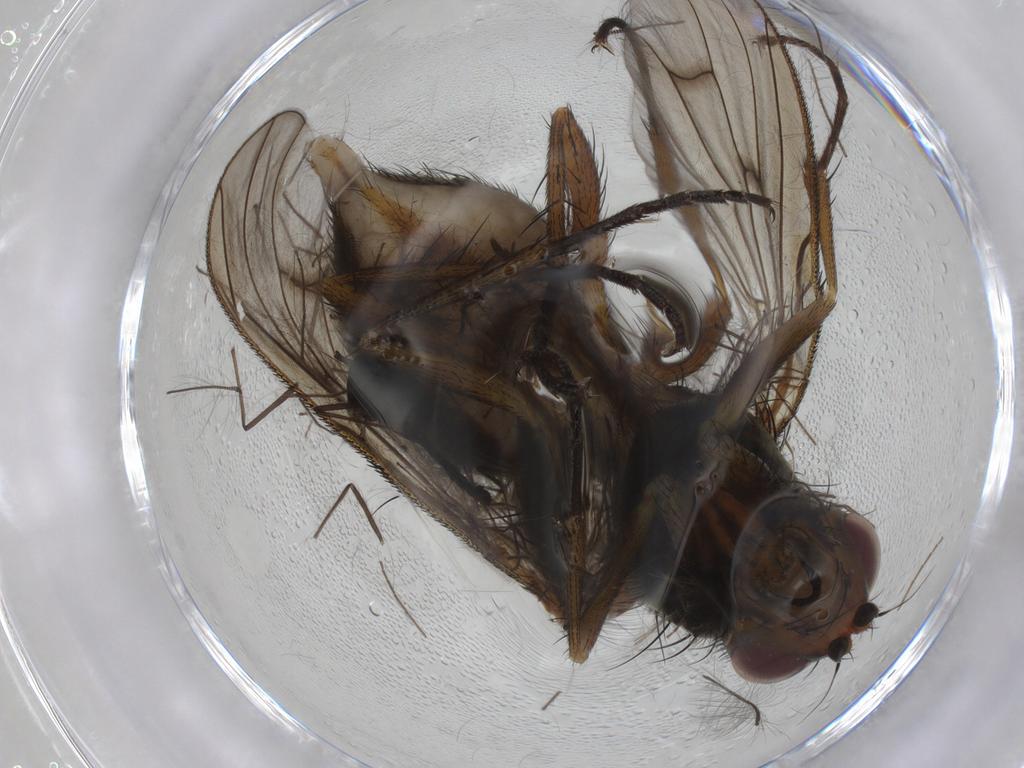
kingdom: Animalia
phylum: Arthropoda
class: Insecta
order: Diptera
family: Anthomyiidae
